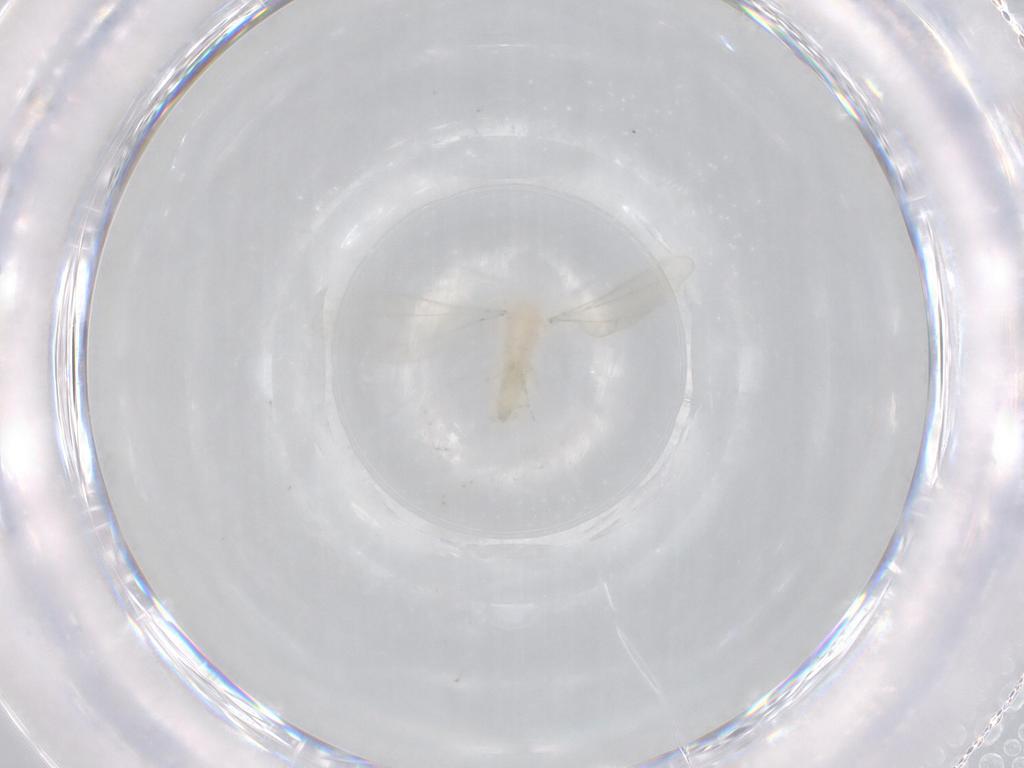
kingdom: Animalia
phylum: Arthropoda
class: Insecta
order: Diptera
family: Cecidomyiidae
